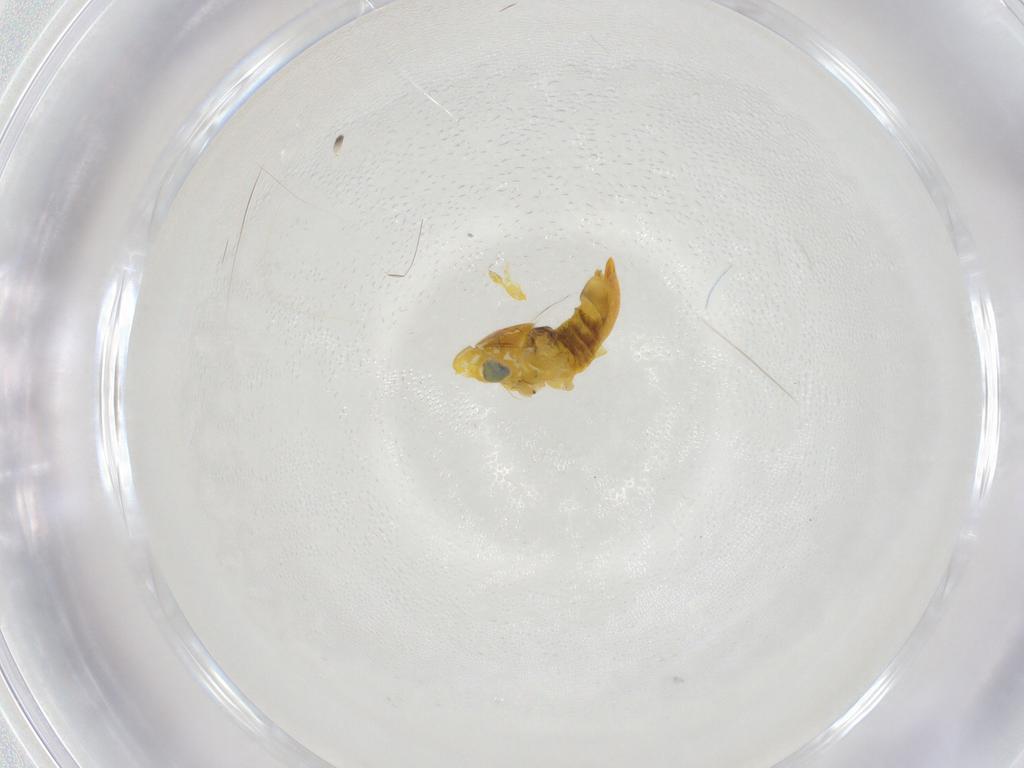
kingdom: Animalia
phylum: Arthropoda
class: Insecta
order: Hemiptera
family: Cicadellidae
